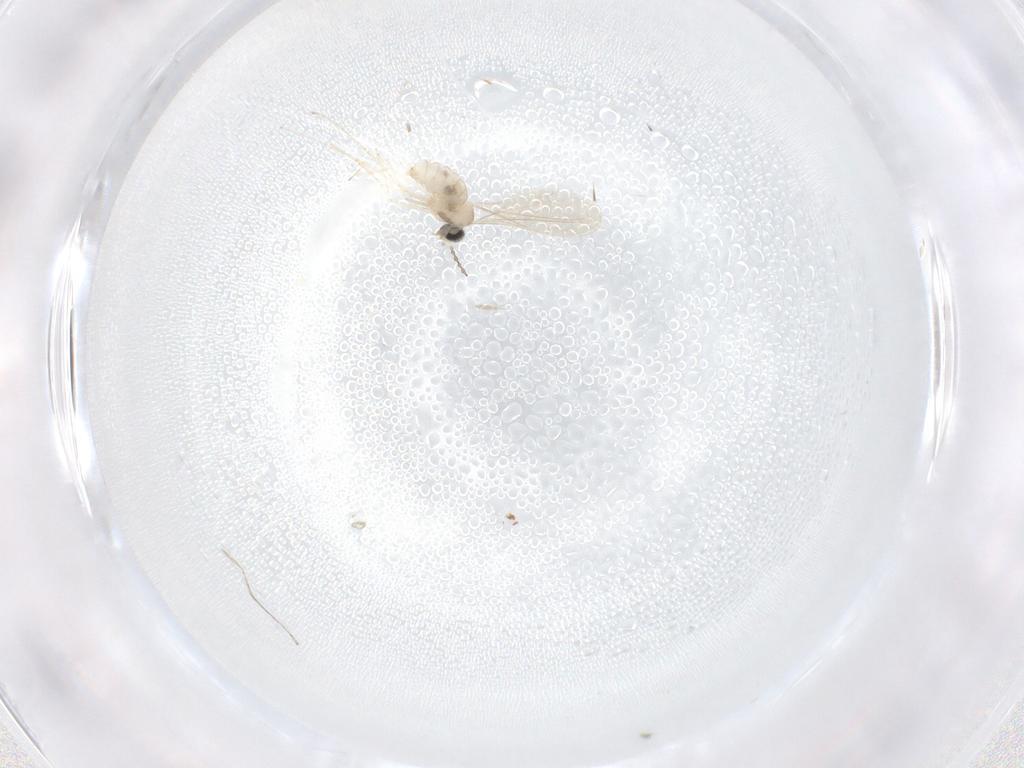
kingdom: Animalia
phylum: Arthropoda
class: Insecta
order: Diptera
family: Cecidomyiidae
